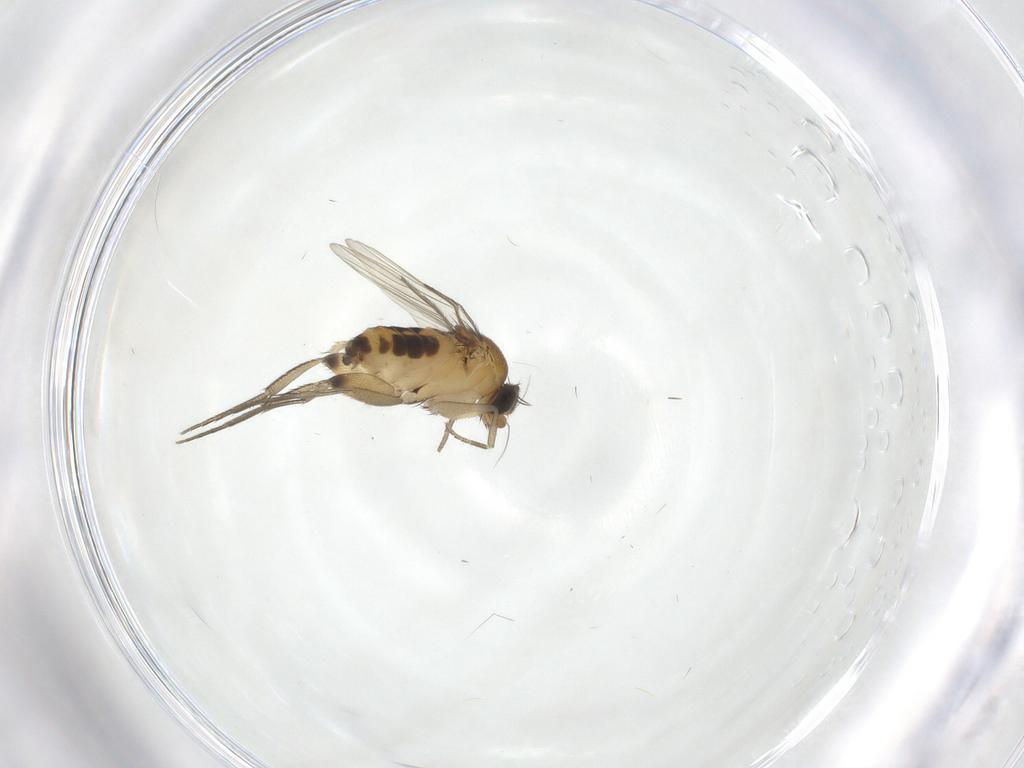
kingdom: Animalia
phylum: Arthropoda
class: Insecta
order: Diptera
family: Phoridae
